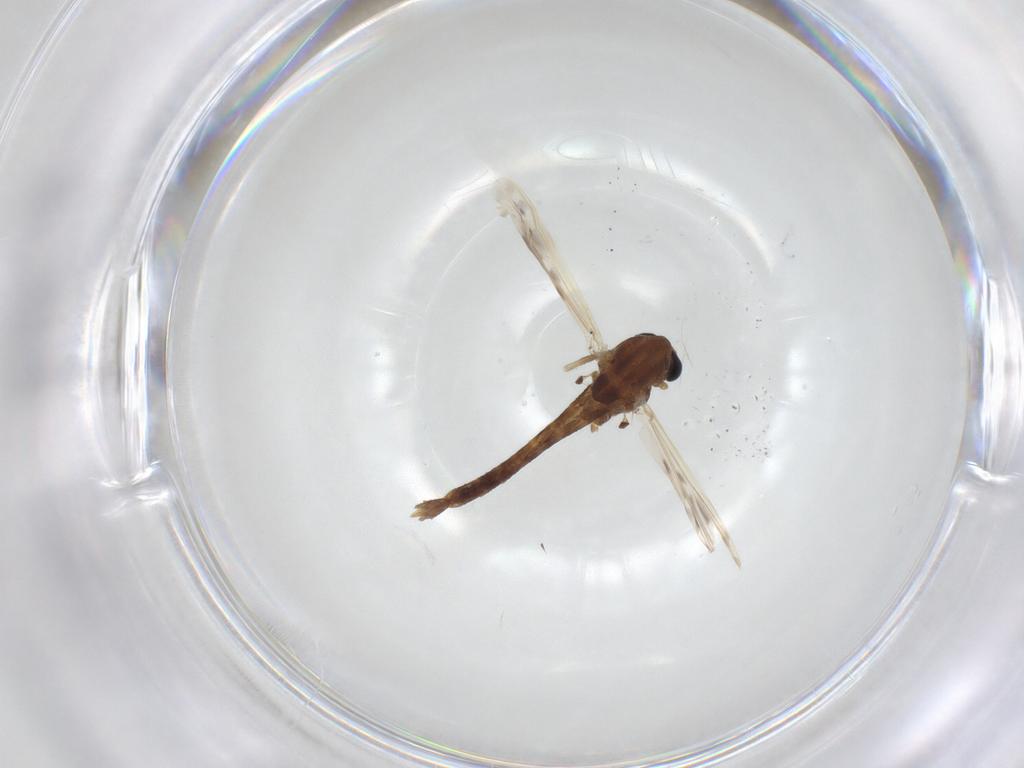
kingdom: Animalia
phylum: Arthropoda
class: Insecta
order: Diptera
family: Chironomidae
